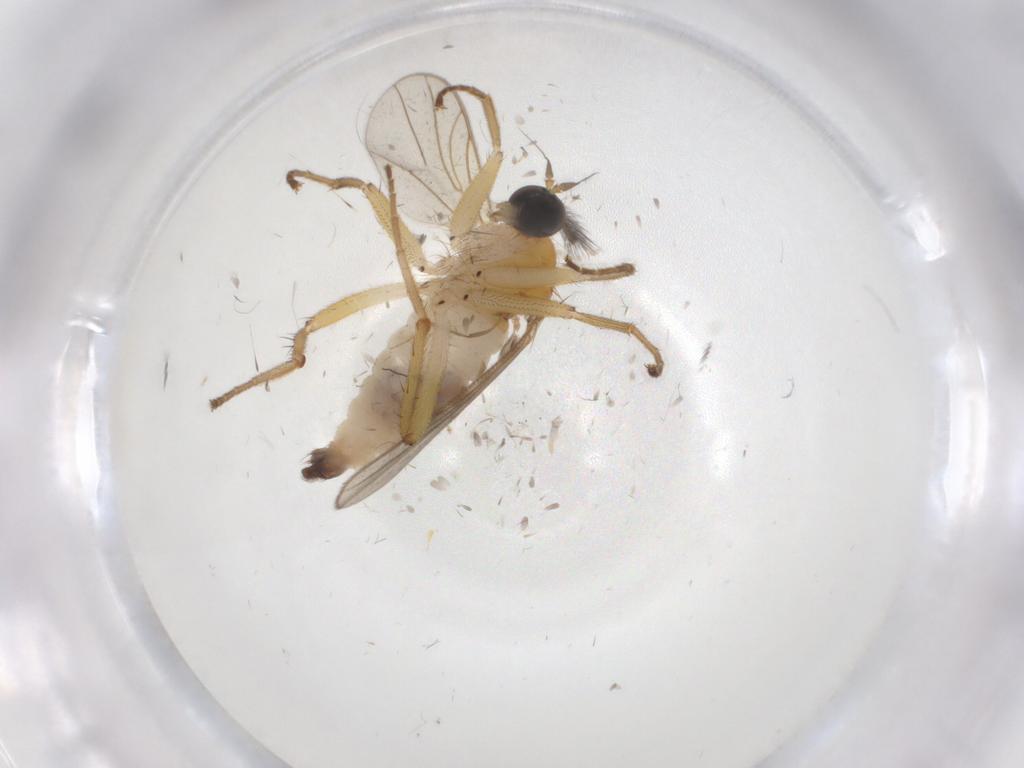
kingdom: Animalia
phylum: Arthropoda
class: Insecta
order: Diptera
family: Hybotidae
